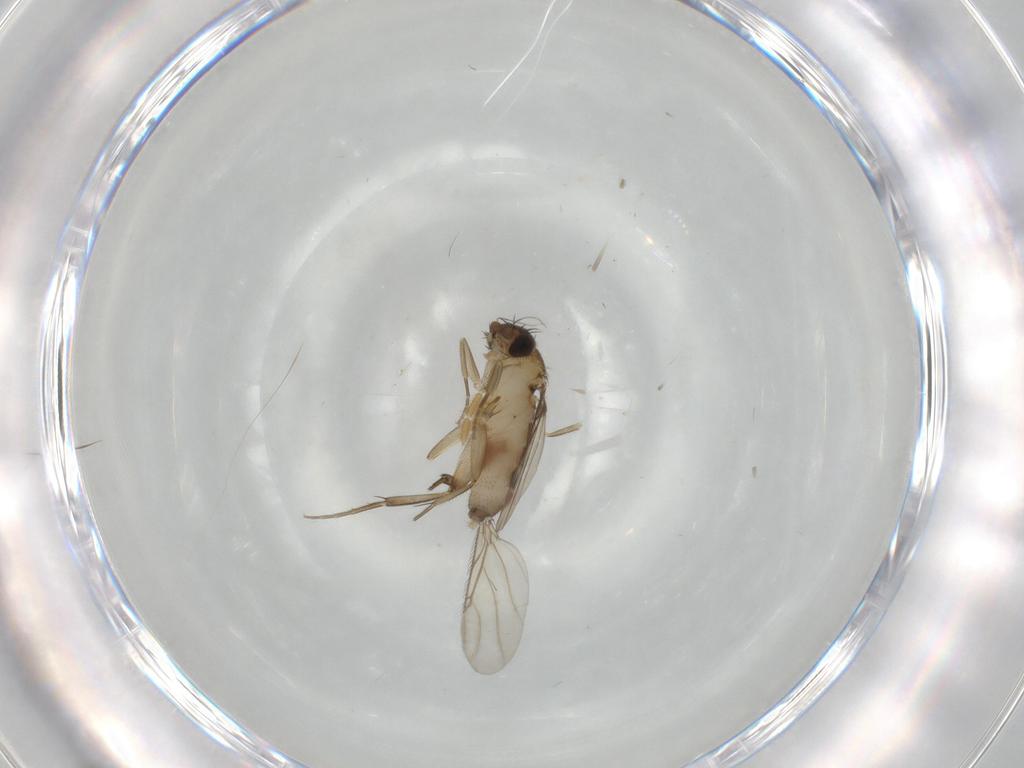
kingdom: Animalia
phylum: Arthropoda
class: Insecta
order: Diptera
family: Phoridae
